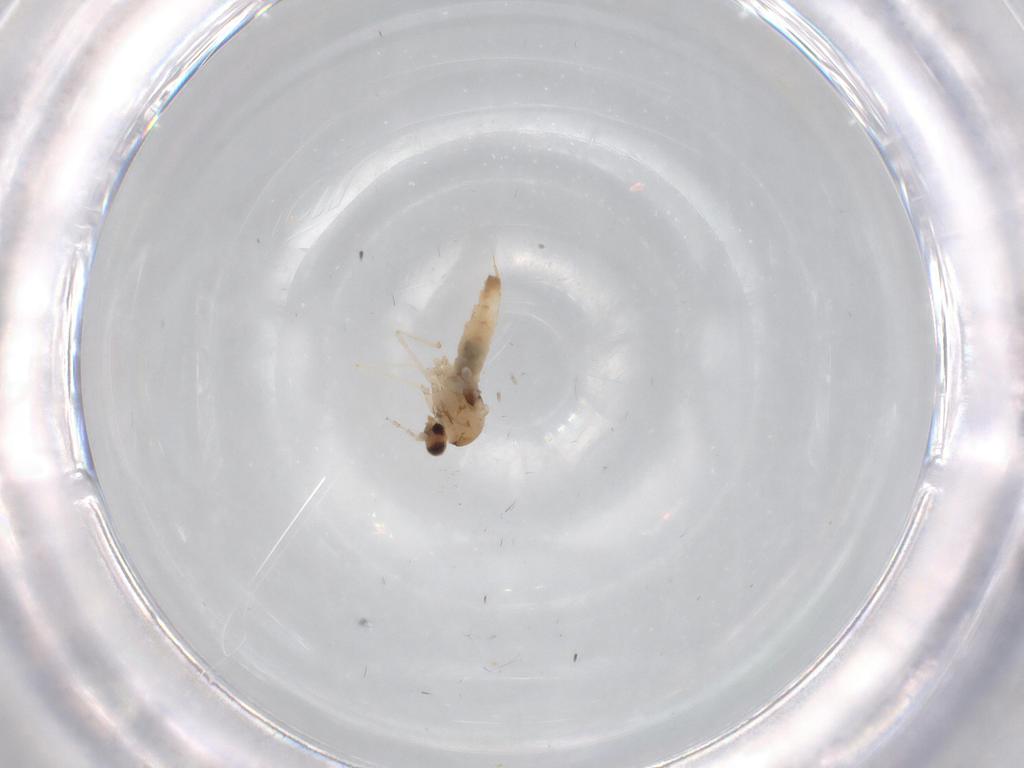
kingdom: Animalia
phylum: Arthropoda
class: Insecta
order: Diptera
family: Cecidomyiidae
